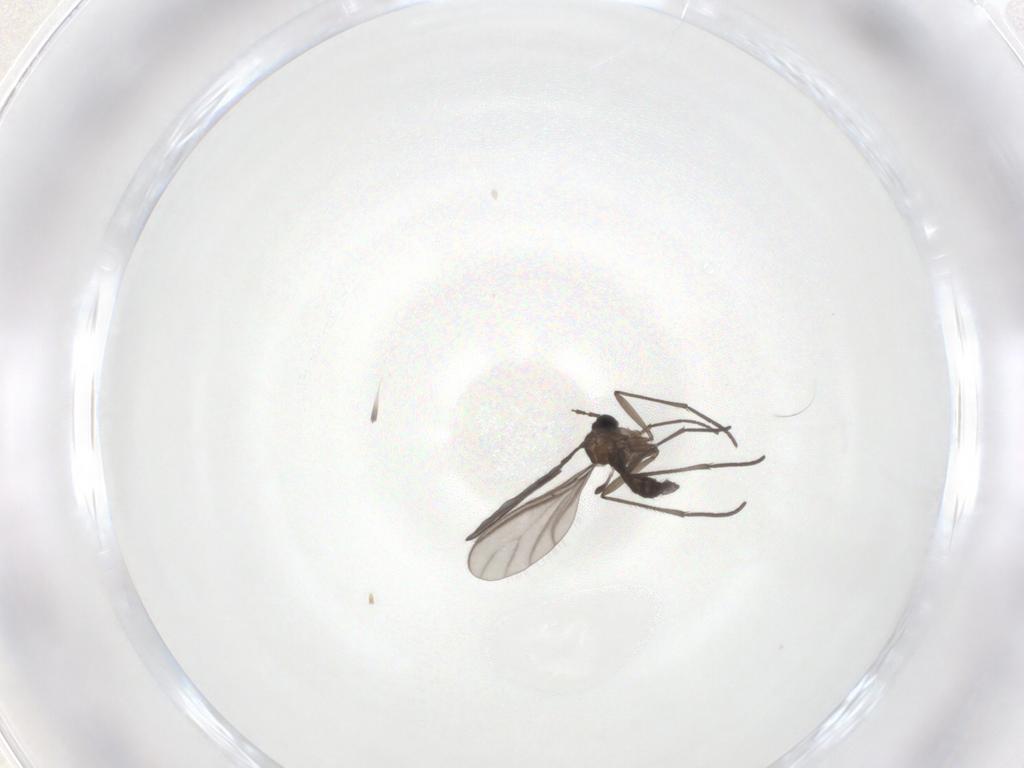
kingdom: Animalia
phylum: Arthropoda
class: Insecta
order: Diptera
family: Sciaridae
